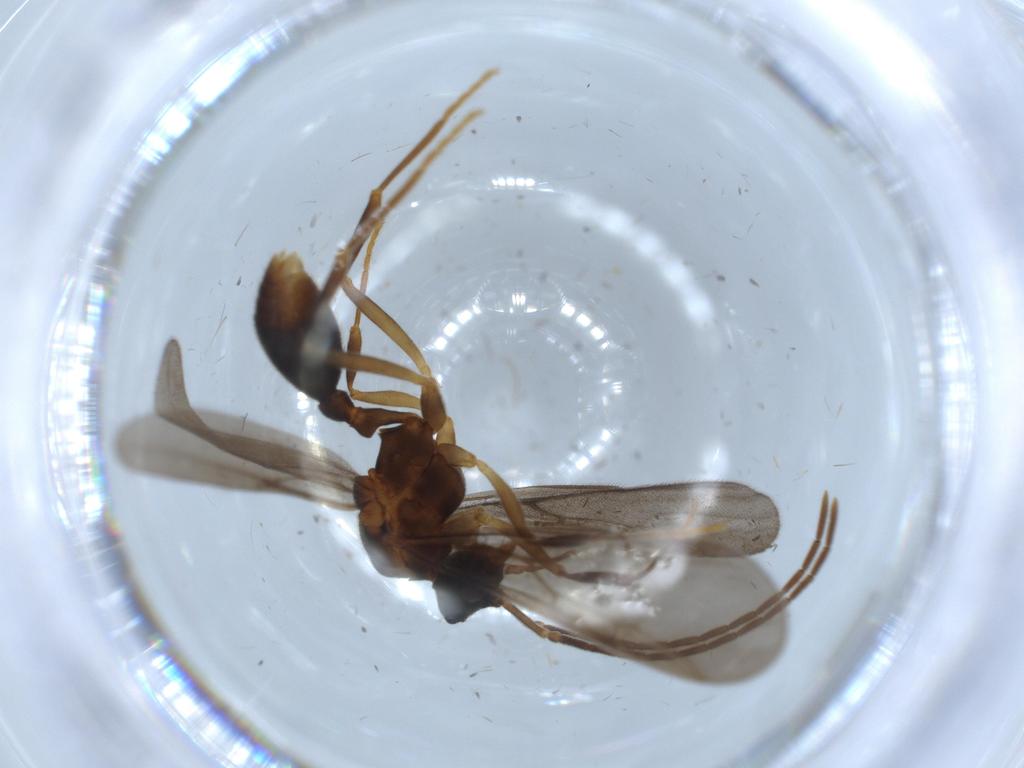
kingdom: Animalia
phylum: Arthropoda
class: Insecta
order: Hymenoptera
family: Formicidae
